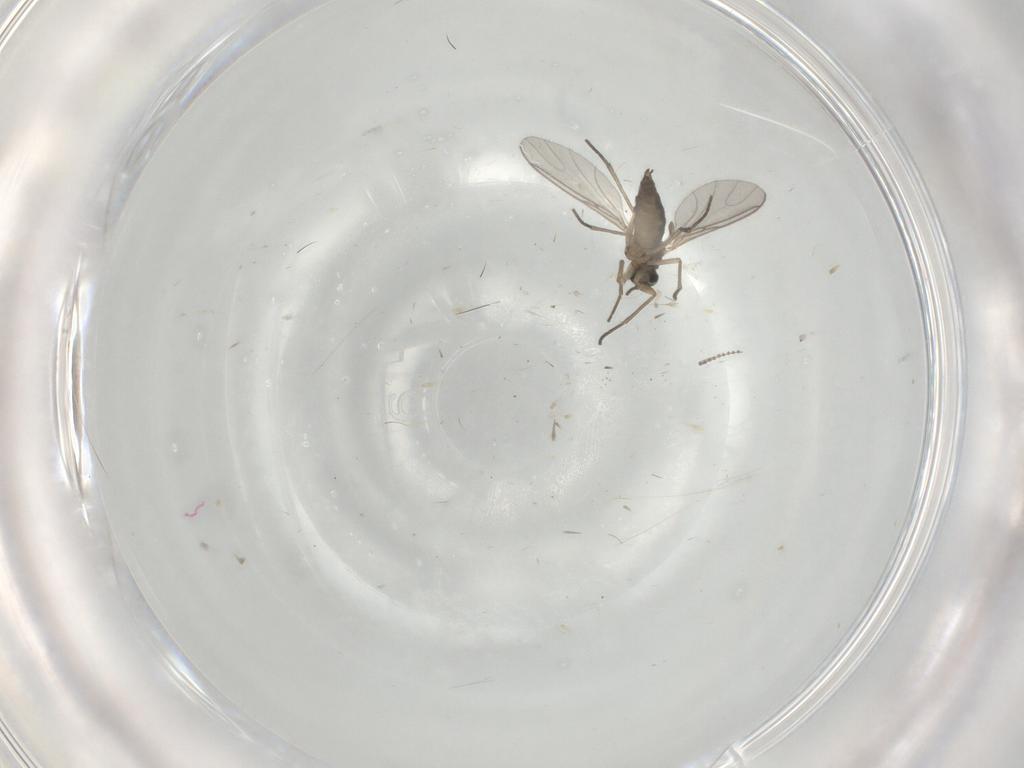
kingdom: Animalia
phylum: Arthropoda
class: Insecta
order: Diptera
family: Sciaridae
